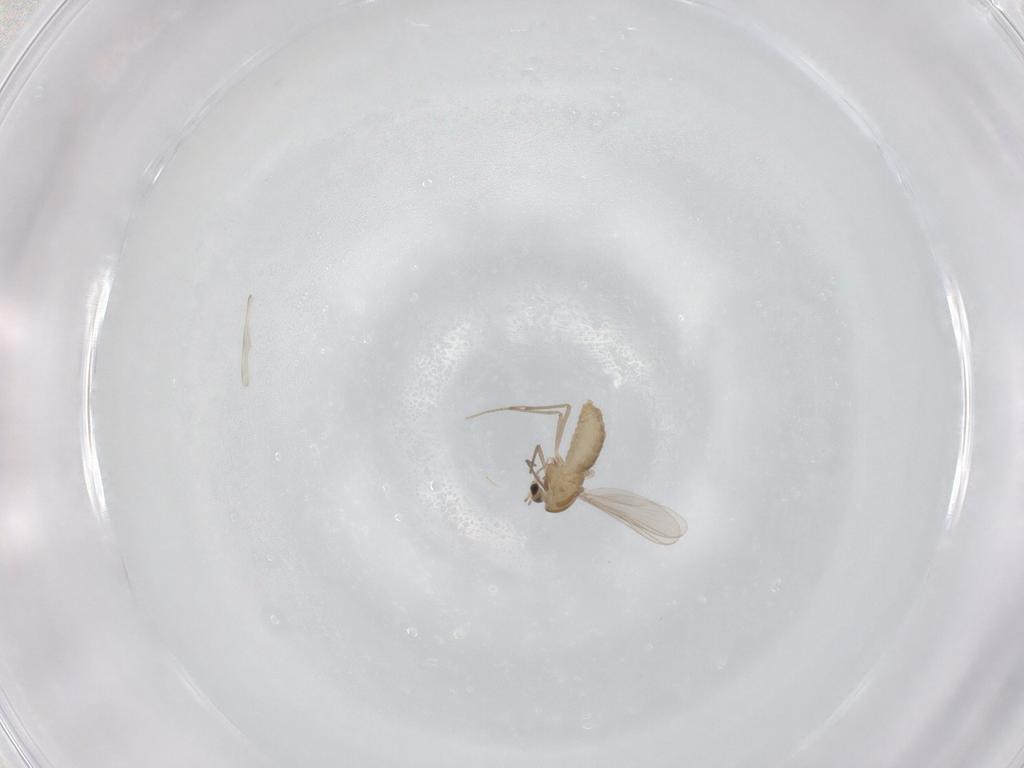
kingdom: Animalia
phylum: Arthropoda
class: Insecta
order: Diptera
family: Chironomidae
